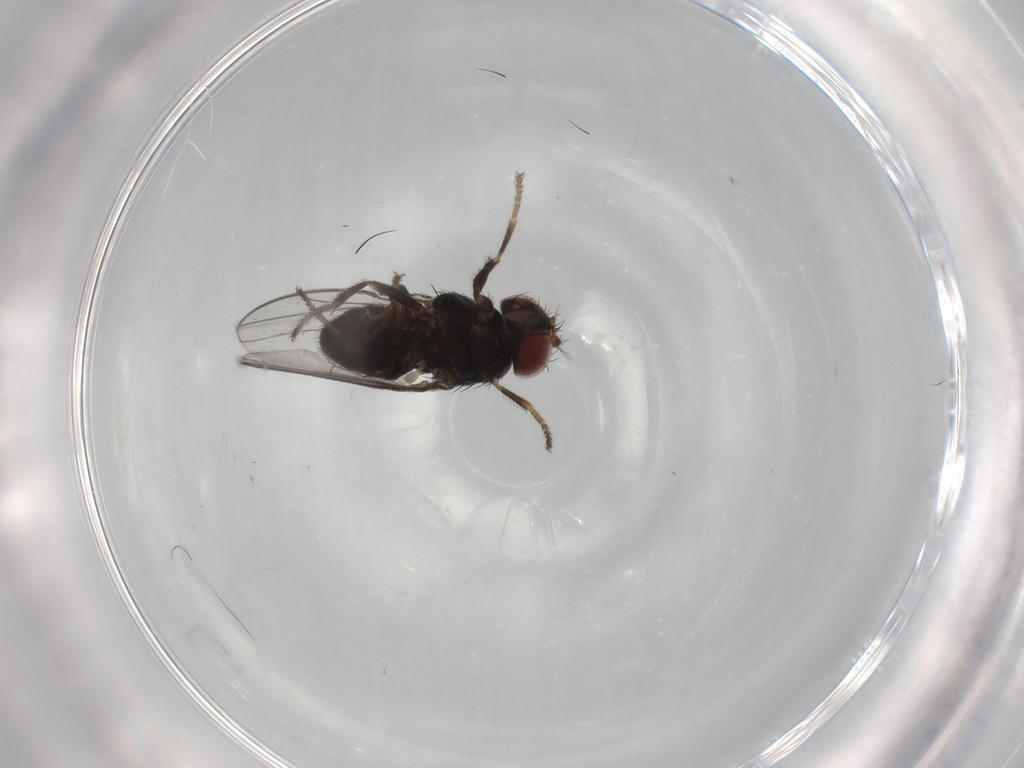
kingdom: Animalia
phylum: Arthropoda
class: Insecta
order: Diptera
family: Ephydridae
